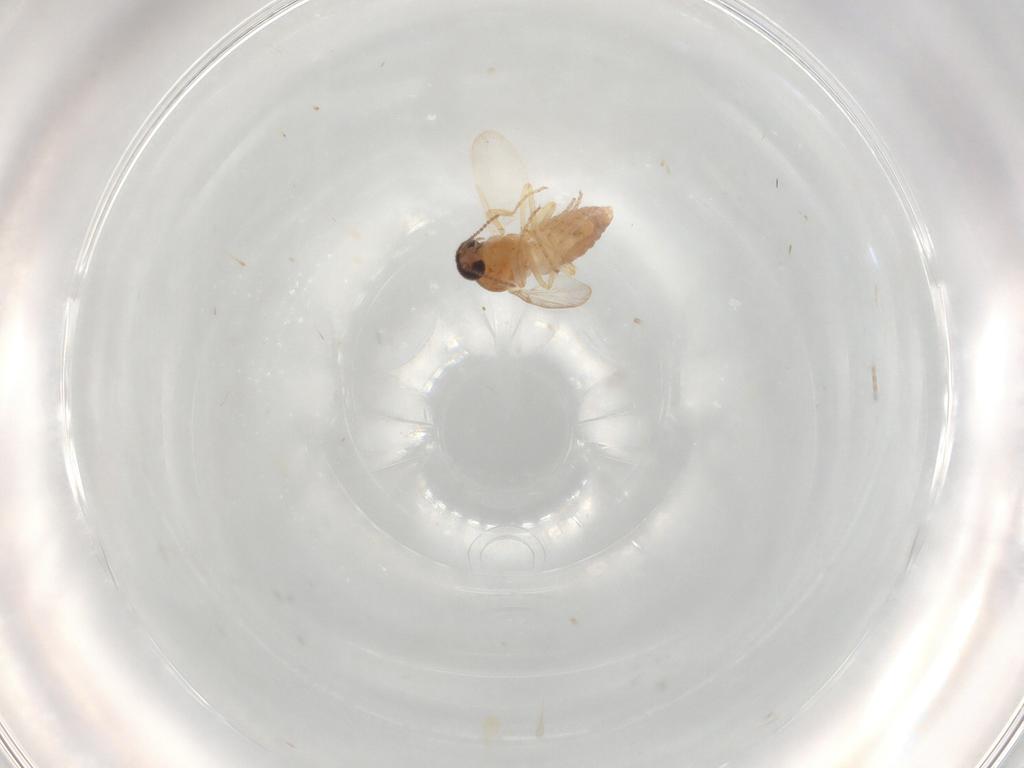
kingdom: Animalia
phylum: Arthropoda
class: Insecta
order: Diptera
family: Ceratopogonidae
